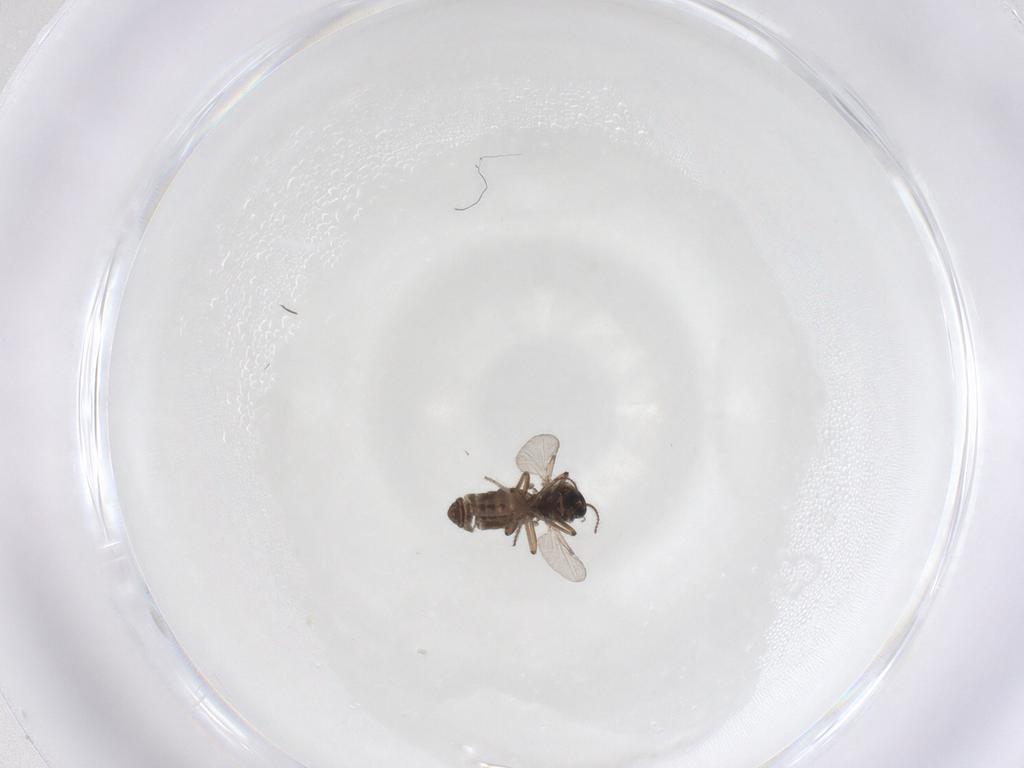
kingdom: Animalia
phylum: Arthropoda
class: Insecta
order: Diptera
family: Ceratopogonidae
